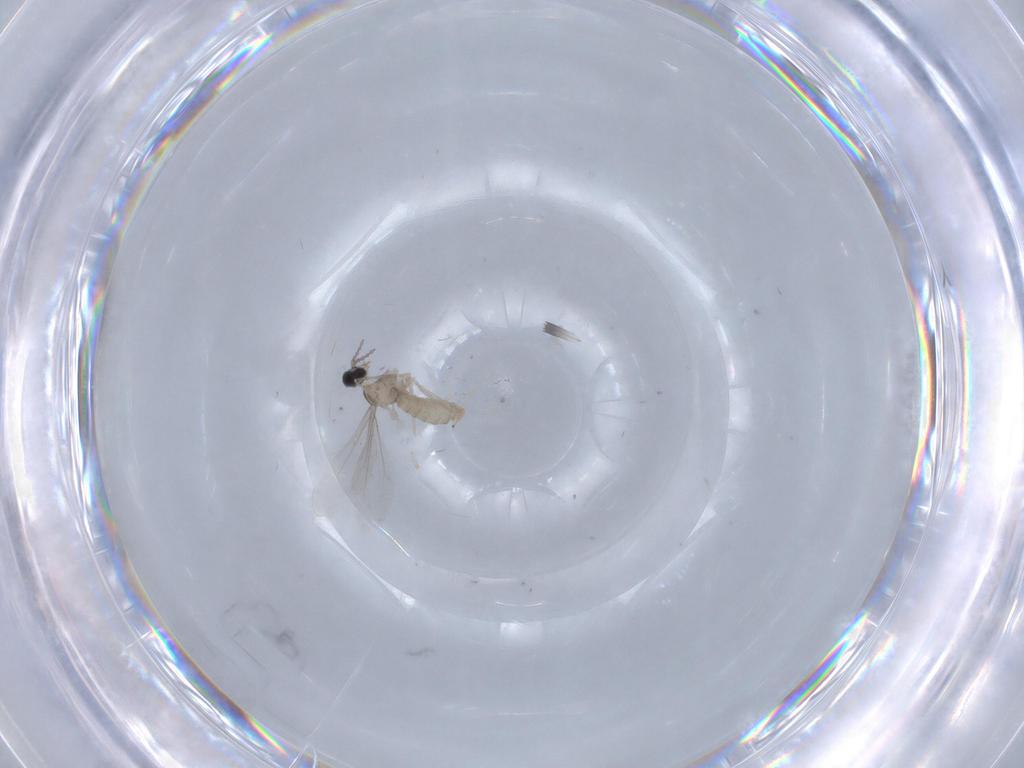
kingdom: Animalia
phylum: Arthropoda
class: Insecta
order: Diptera
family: Cecidomyiidae
